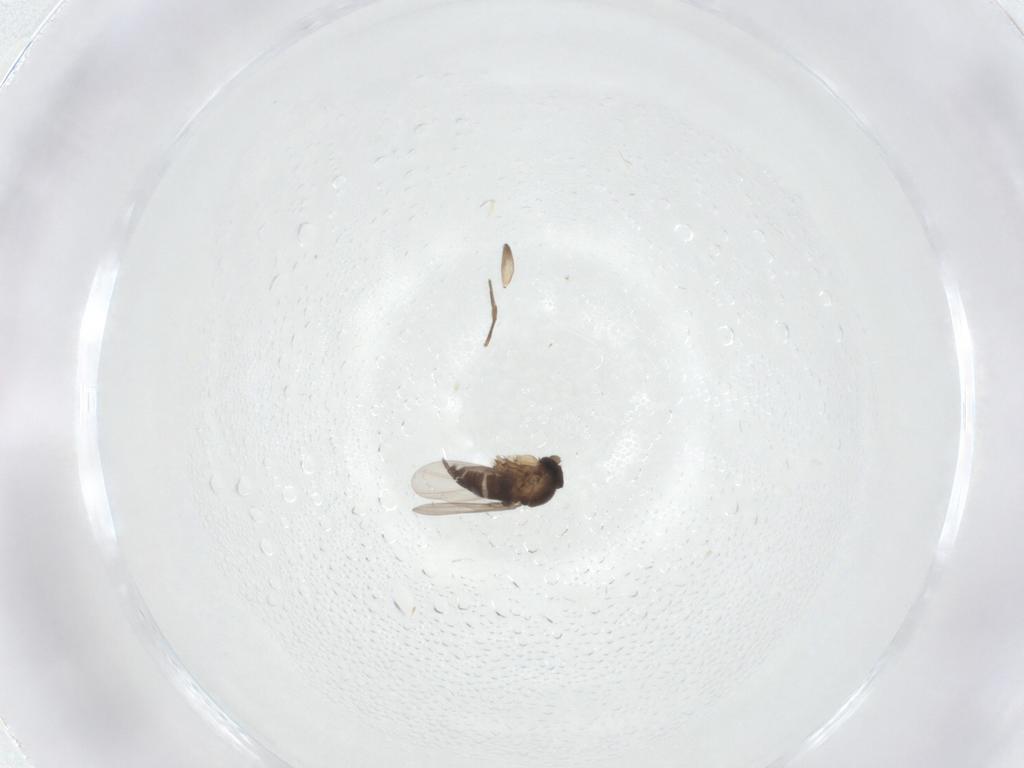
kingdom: Animalia
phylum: Arthropoda
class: Insecta
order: Diptera
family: Phoridae
